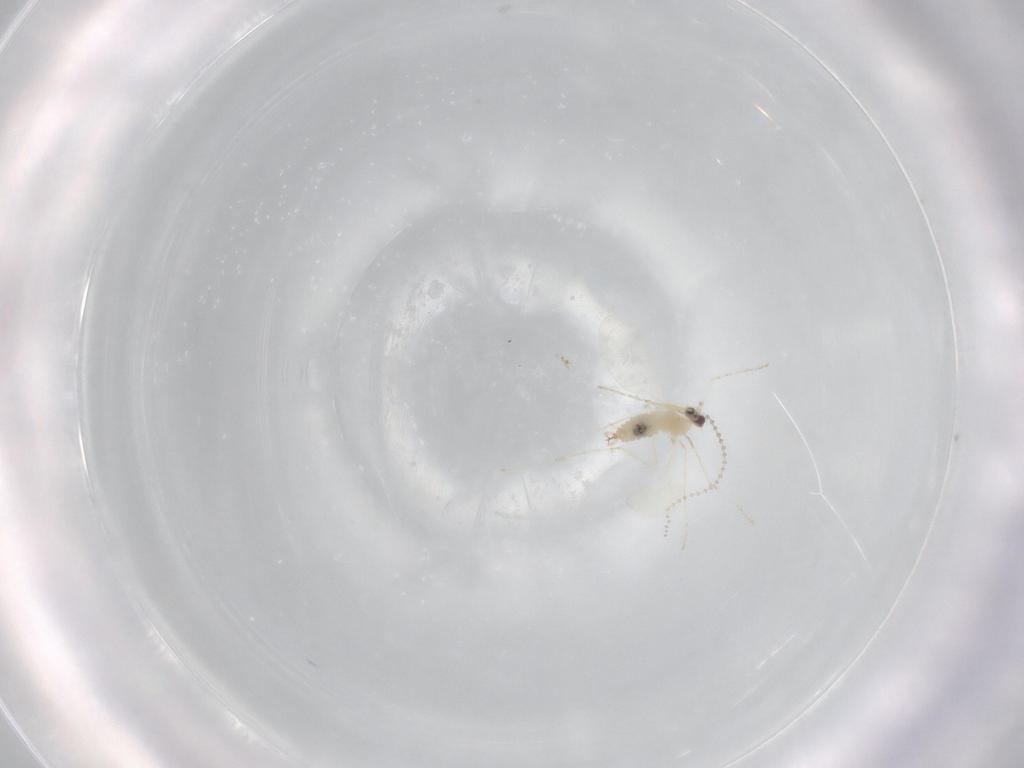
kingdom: Animalia
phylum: Arthropoda
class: Insecta
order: Diptera
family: Cecidomyiidae
